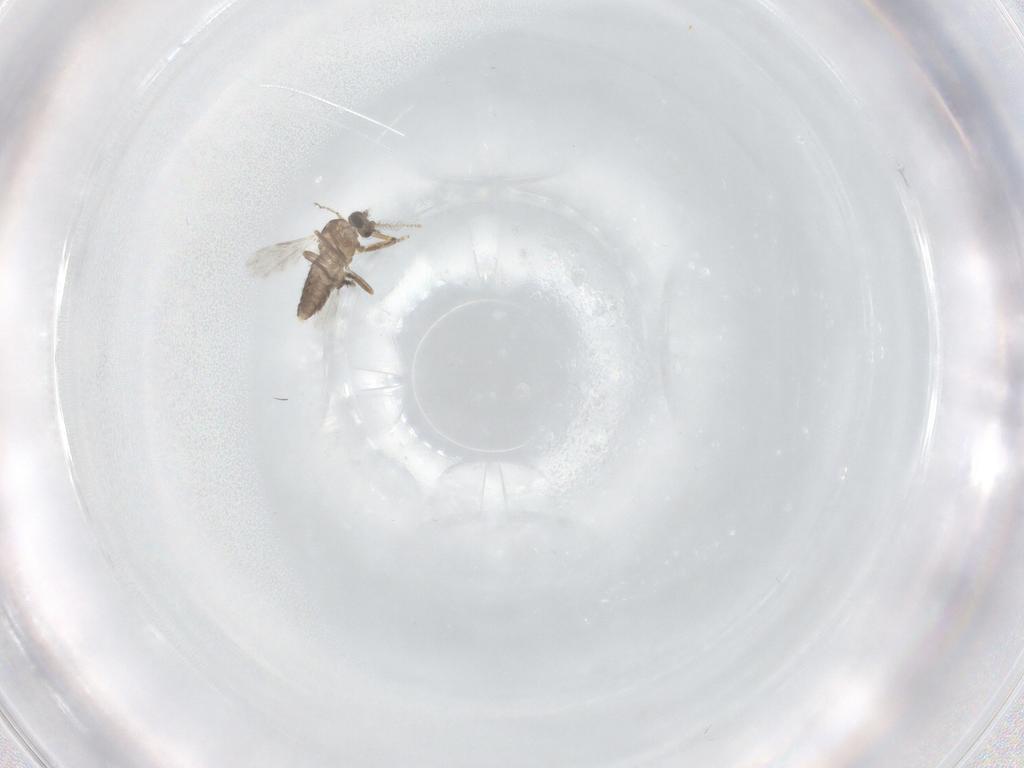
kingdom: Animalia
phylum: Arthropoda
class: Insecta
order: Diptera
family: Ceratopogonidae
